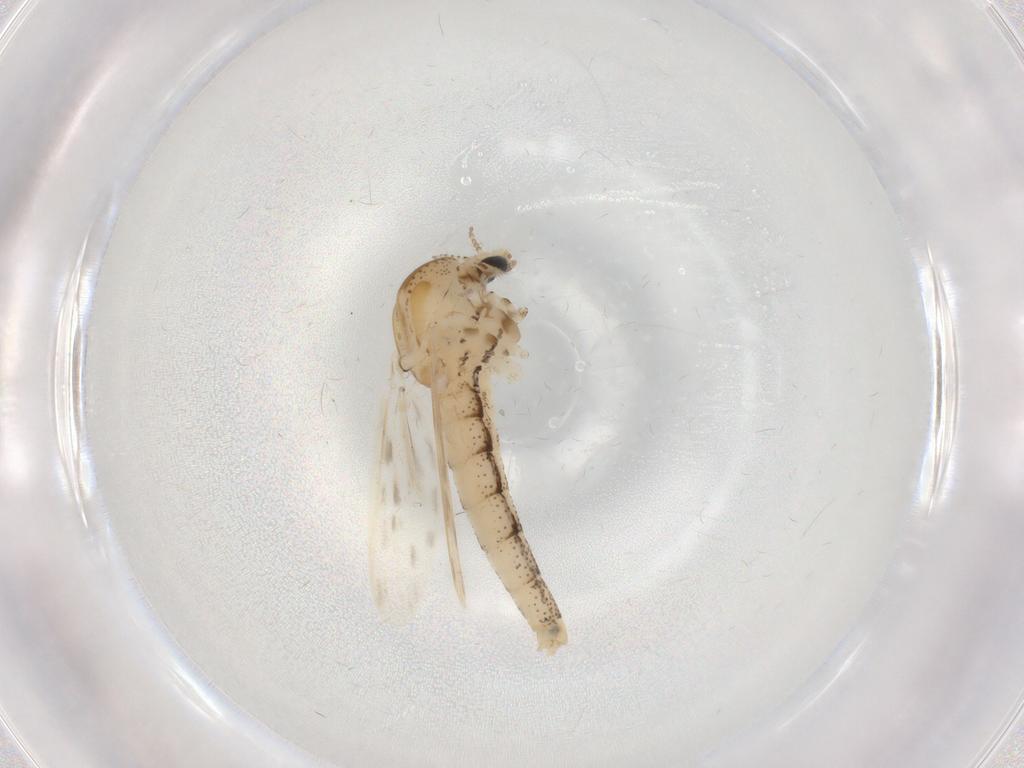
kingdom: Animalia
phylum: Arthropoda
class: Insecta
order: Diptera
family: Chaoboridae
